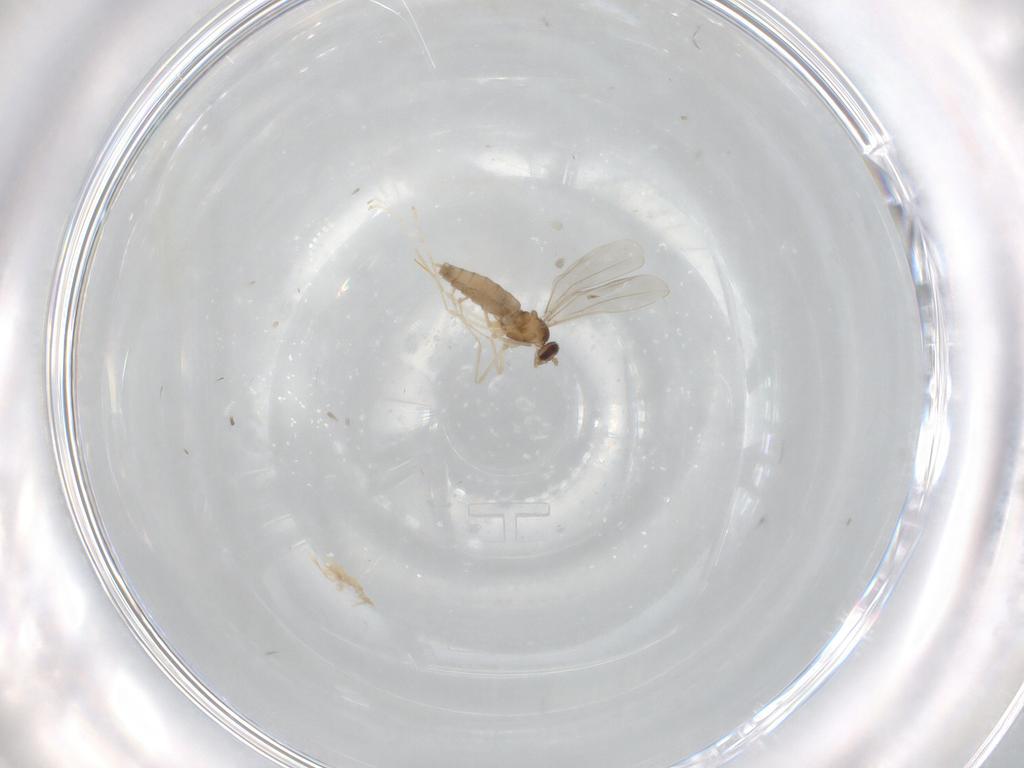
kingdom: Animalia
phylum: Arthropoda
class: Insecta
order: Diptera
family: Cecidomyiidae
